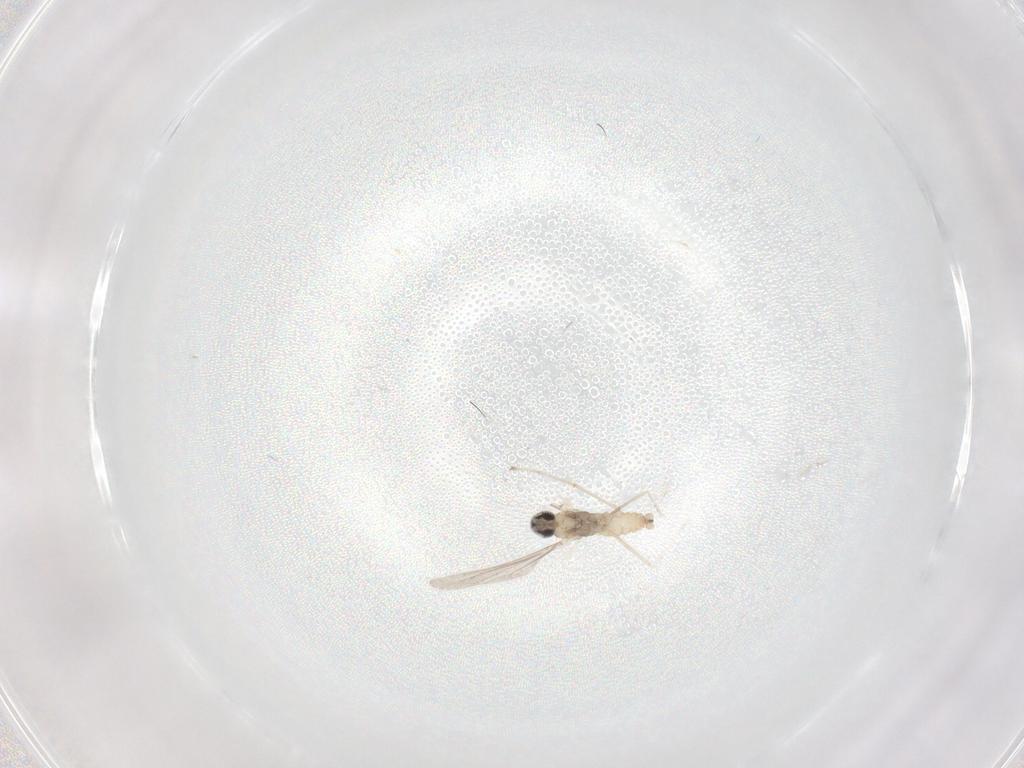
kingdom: Animalia
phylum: Arthropoda
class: Insecta
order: Diptera
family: Cecidomyiidae
